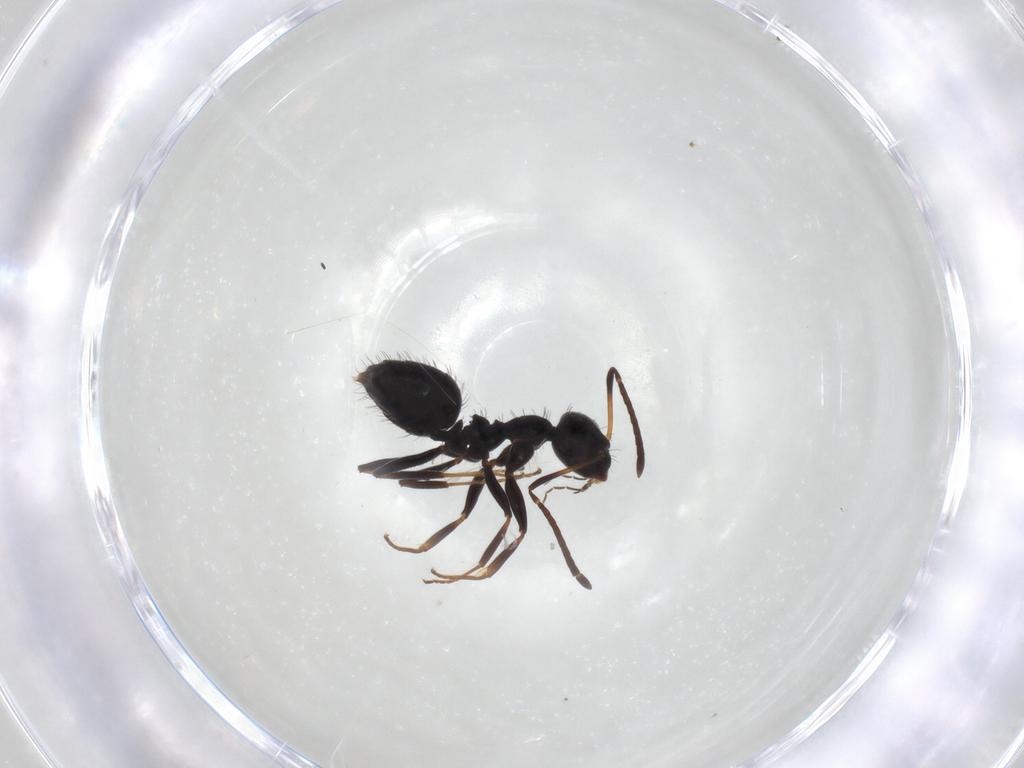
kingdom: Animalia
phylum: Arthropoda
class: Insecta
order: Hymenoptera
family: Formicidae
